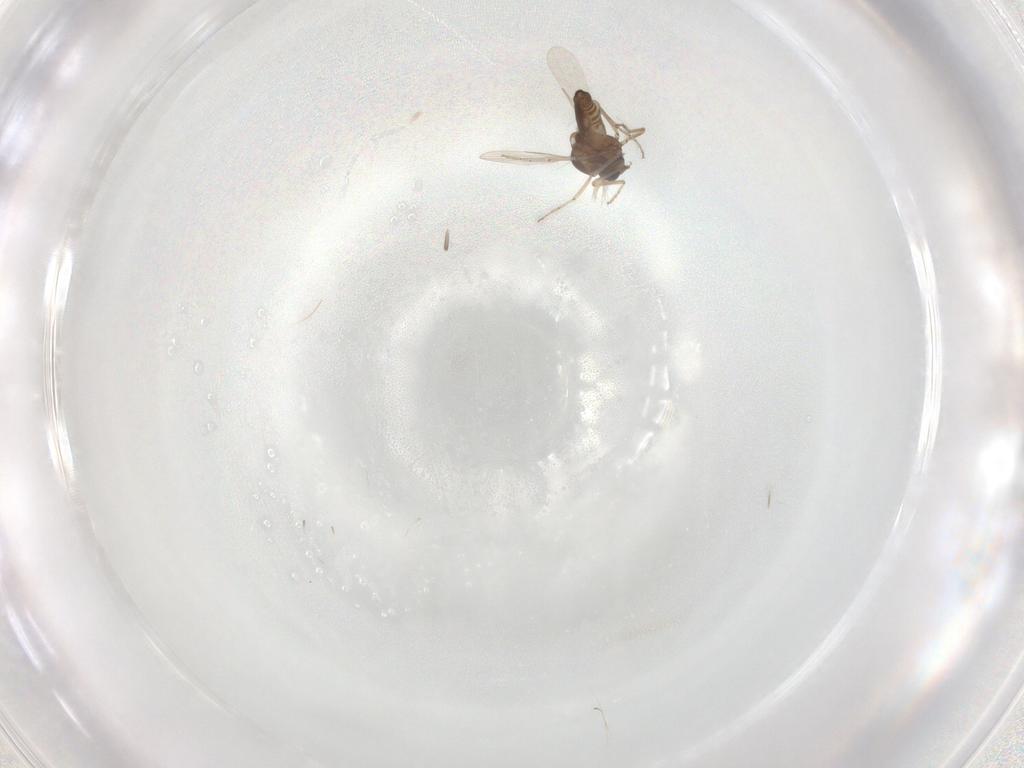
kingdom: Animalia
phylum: Arthropoda
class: Insecta
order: Diptera
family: Ceratopogonidae
